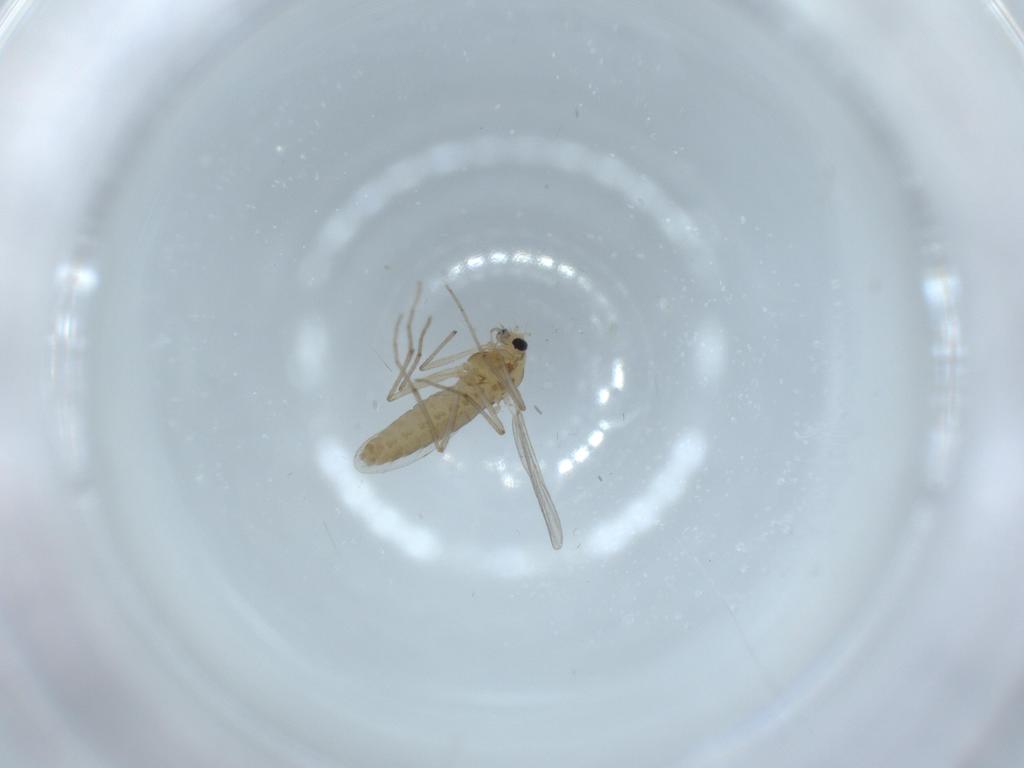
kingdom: Animalia
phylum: Arthropoda
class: Insecta
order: Diptera
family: Chironomidae
